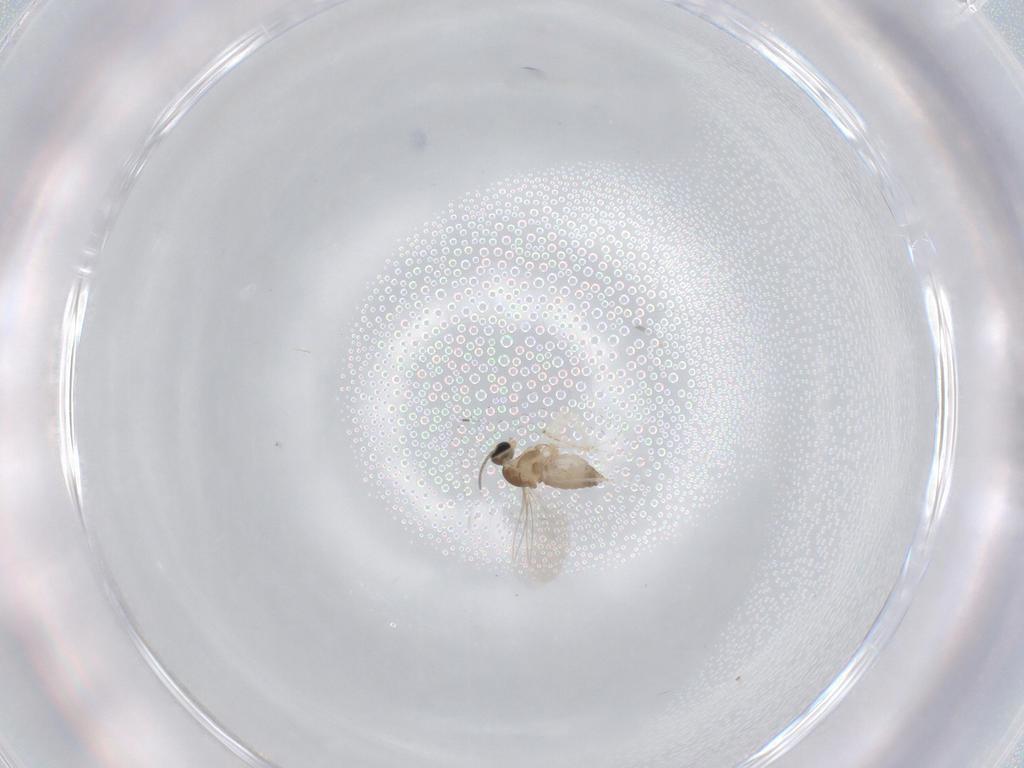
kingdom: Animalia
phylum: Arthropoda
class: Insecta
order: Diptera
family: Cecidomyiidae
